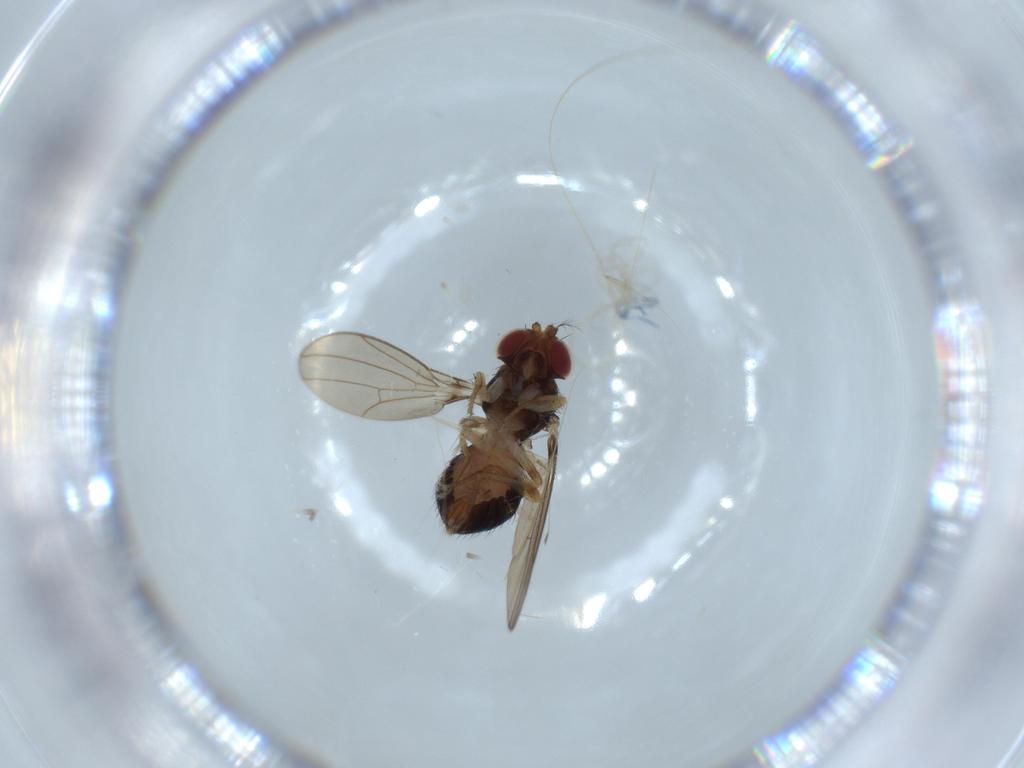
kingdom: Animalia
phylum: Arthropoda
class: Insecta
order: Diptera
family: Drosophilidae
